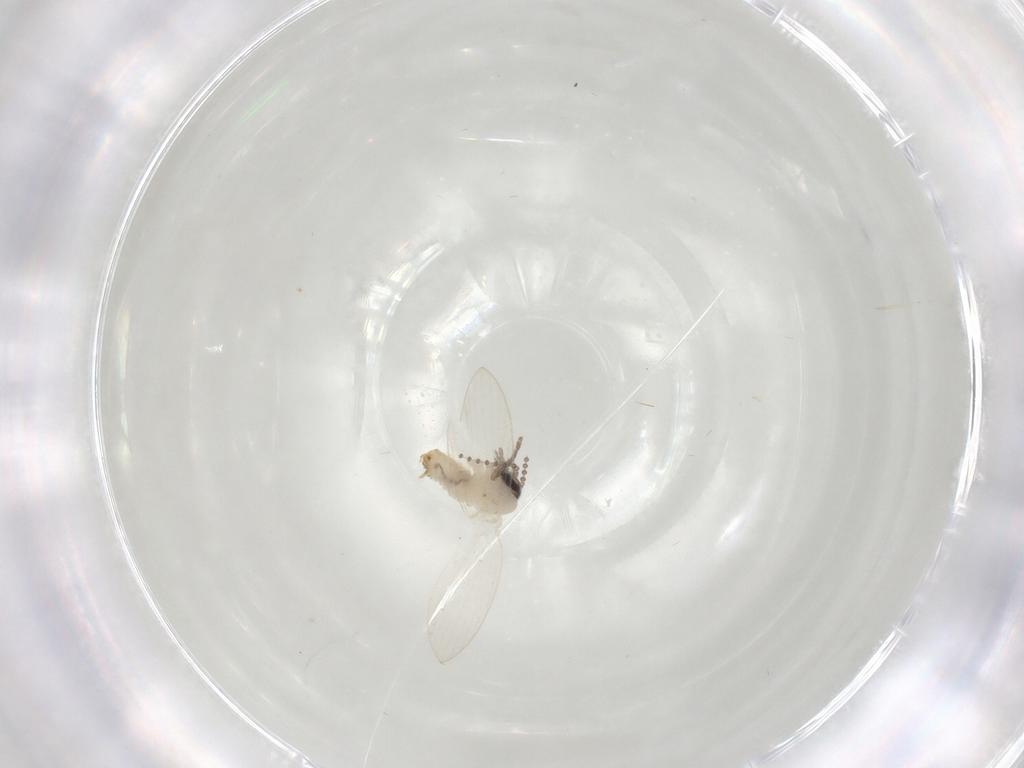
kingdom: Animalia
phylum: Arthropoda
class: Insecta
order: Diptera
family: Psychodidae
